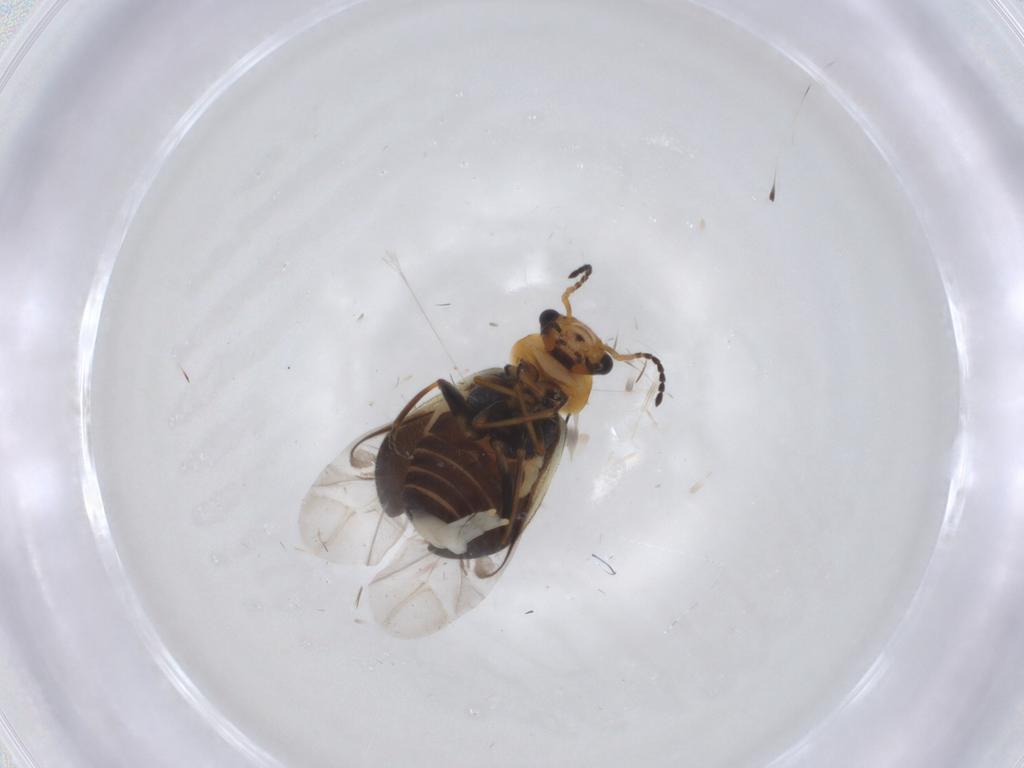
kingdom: Animalia
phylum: Arthropoda
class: Insecta
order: Coleoptera
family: Melyridae
